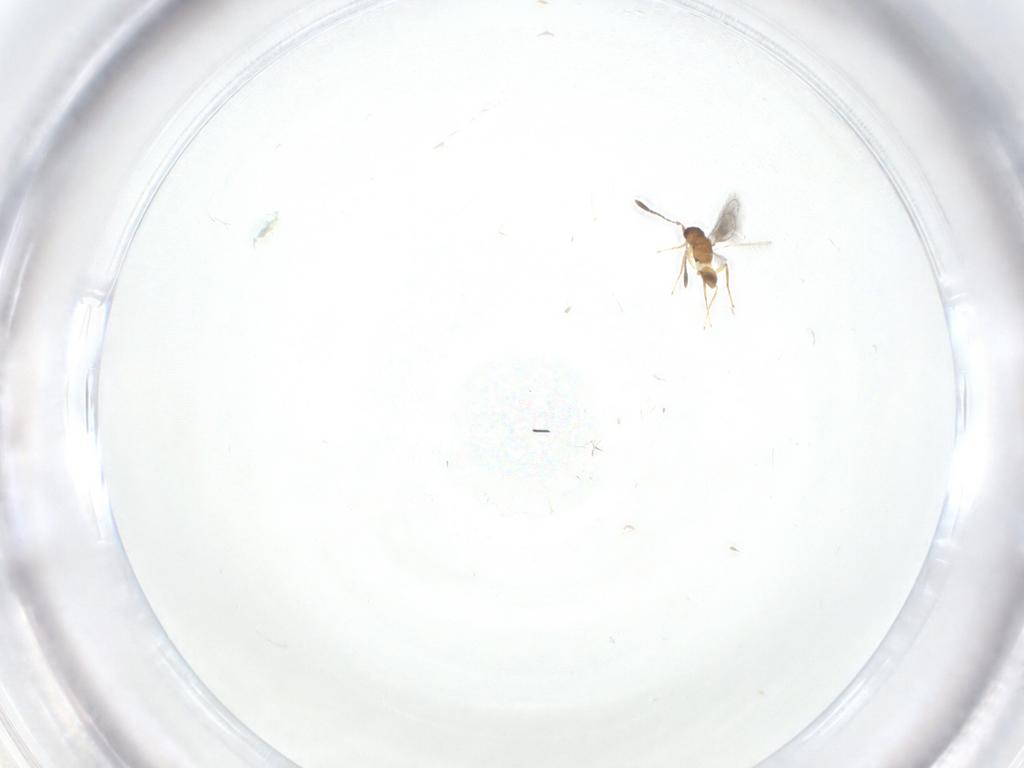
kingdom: Animalia
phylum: Arthropoda
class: Insecta
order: Hymenoptera
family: Mymaridae
